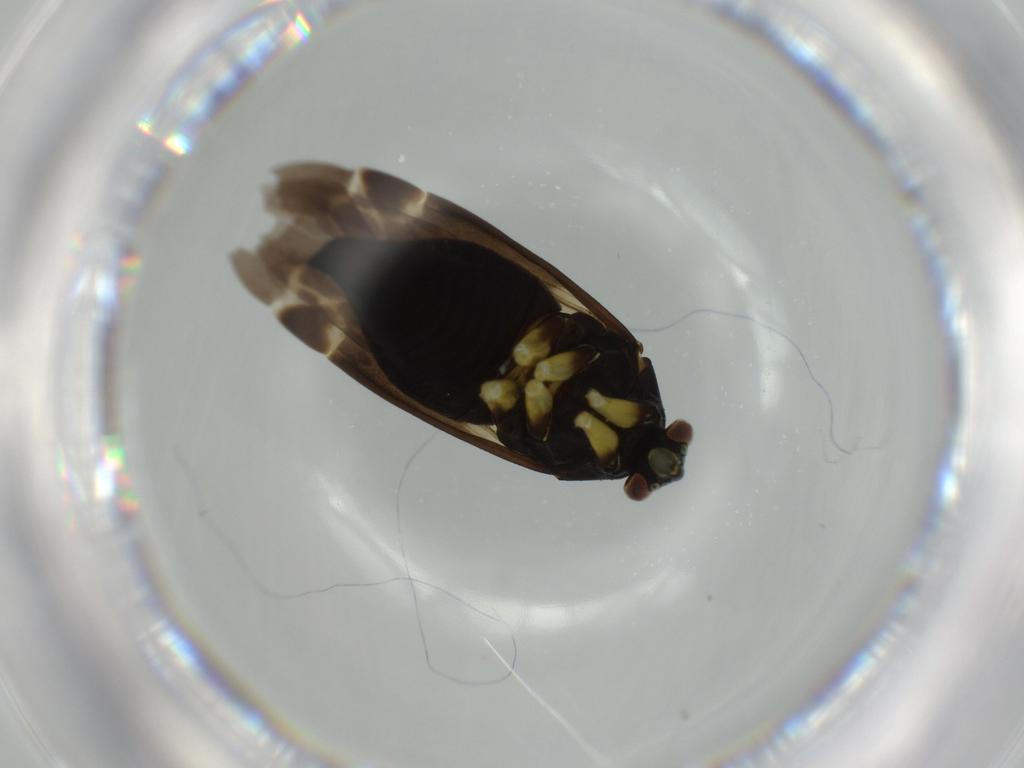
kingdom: Animalia
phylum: Arthropoda
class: Insecta
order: Hemiptera
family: Miridae
